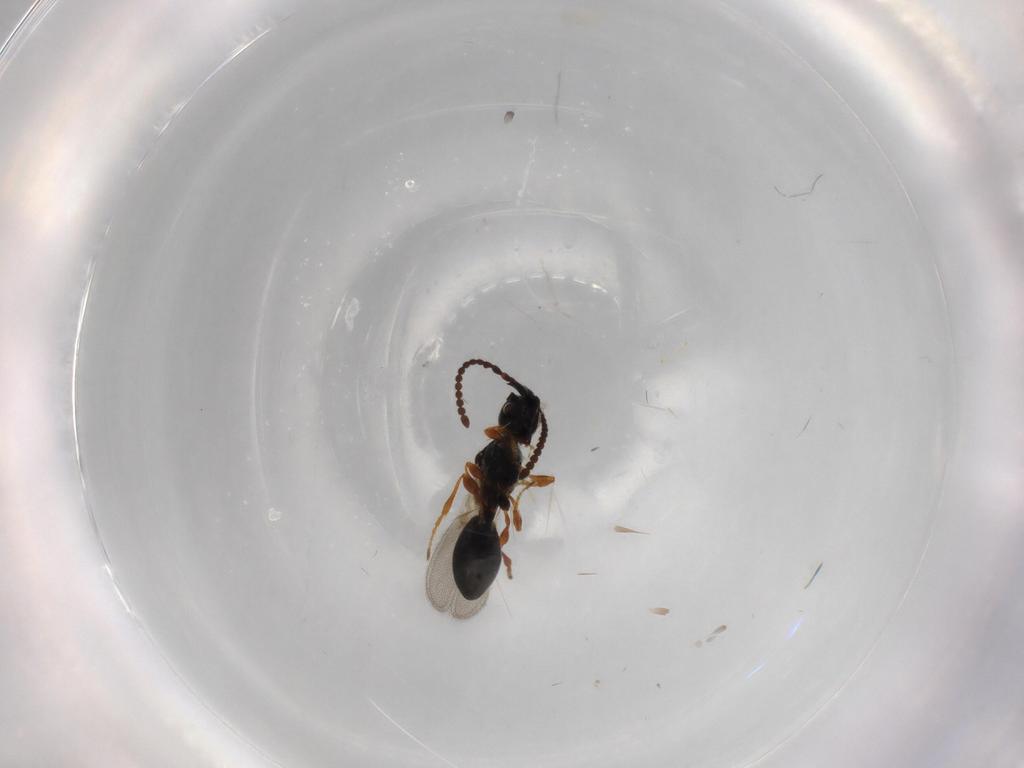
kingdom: Animalia
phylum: Arthropoda
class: Insecta
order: Hymenoptera
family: Diapriidae
